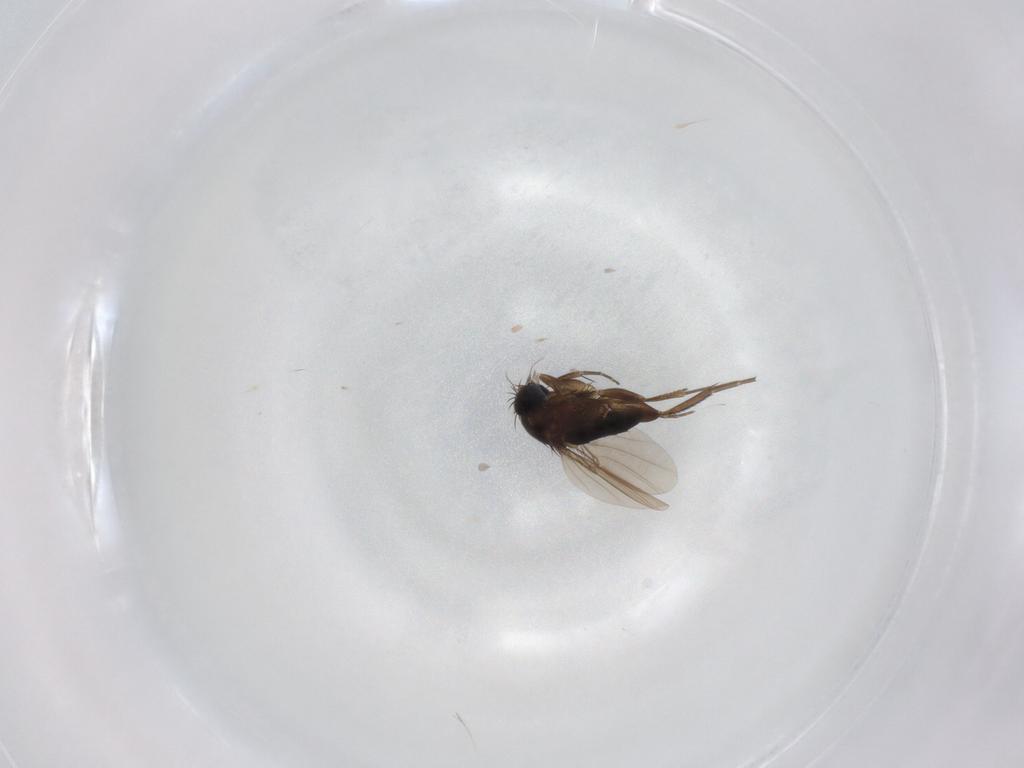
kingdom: Animalia
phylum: Arthropoda
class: Insecta
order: Diptera
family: Phoridae
